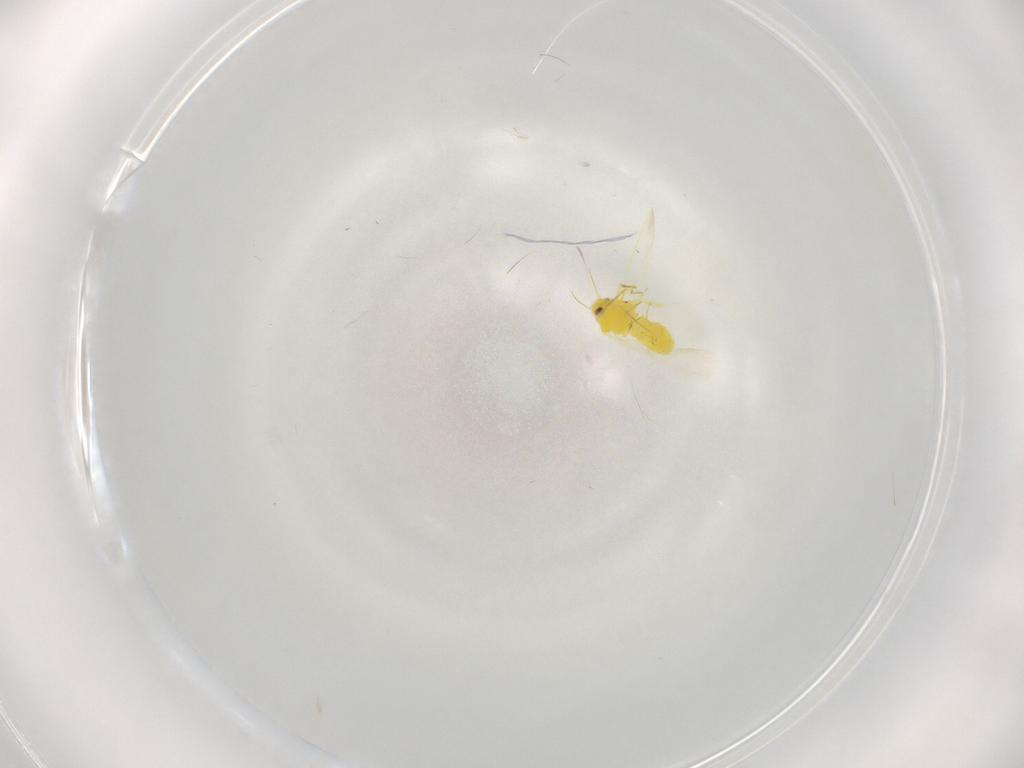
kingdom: Animalia
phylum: Arthropoda
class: Insecta
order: Hemiptera
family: Aleyrodidae
